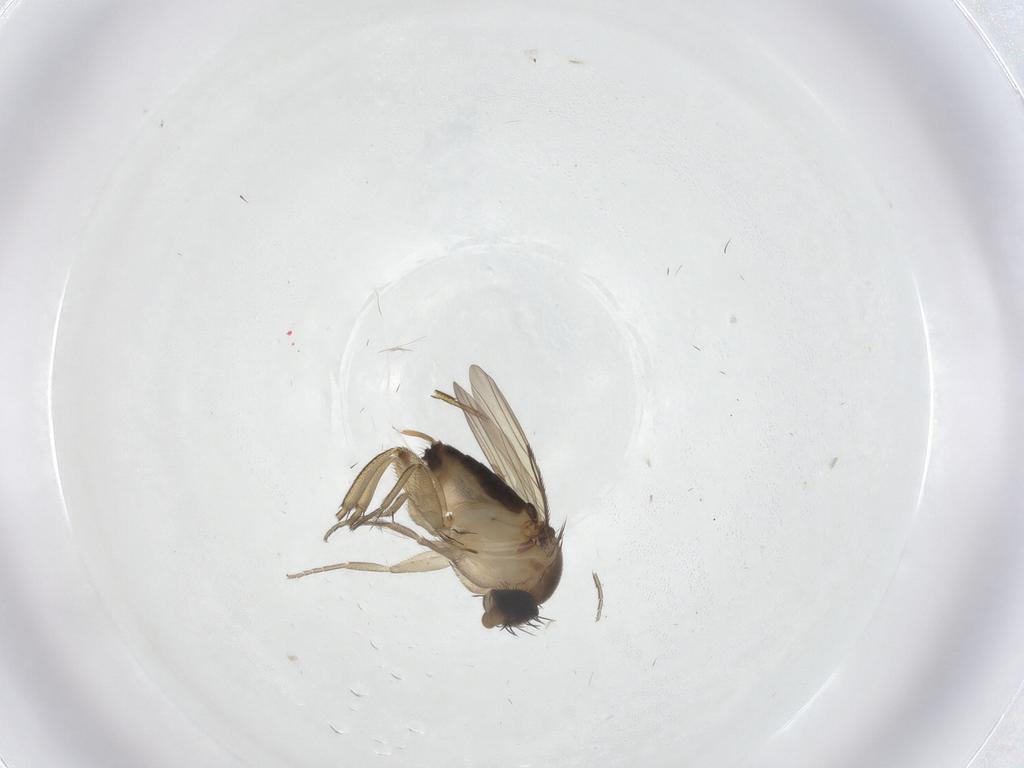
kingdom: Animalia
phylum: Arthropoda
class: Insecta
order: Diptera
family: Phoridae
